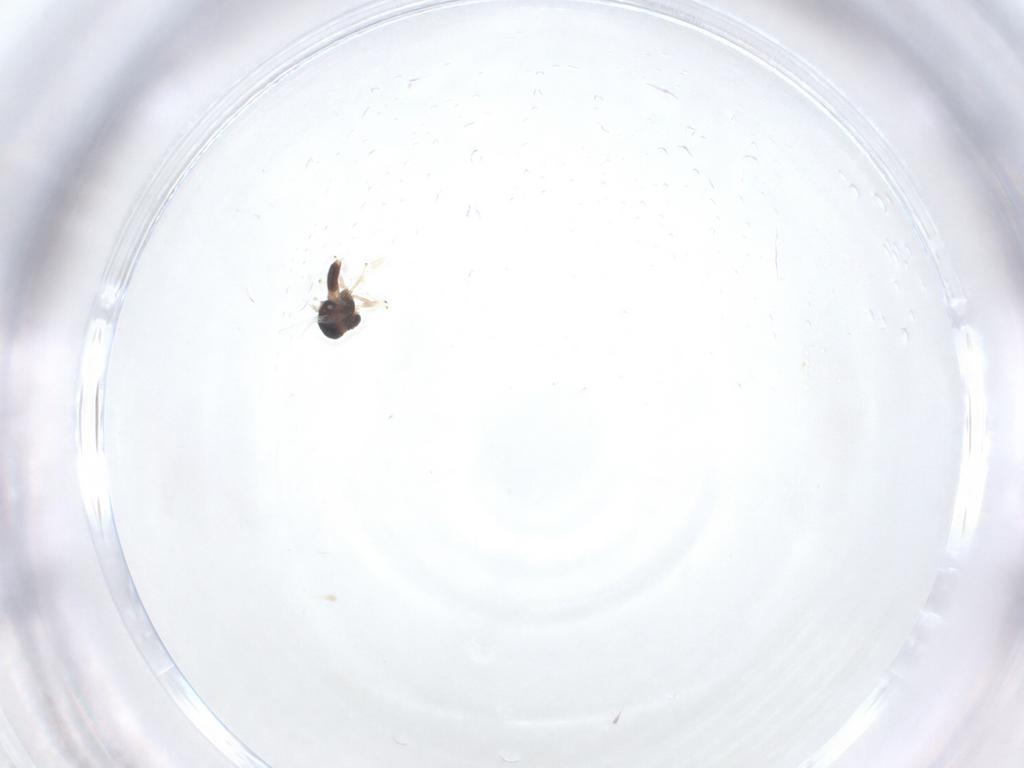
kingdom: Animalia
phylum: Arthropoda
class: Insecta
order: Diptera
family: Chironomidae
